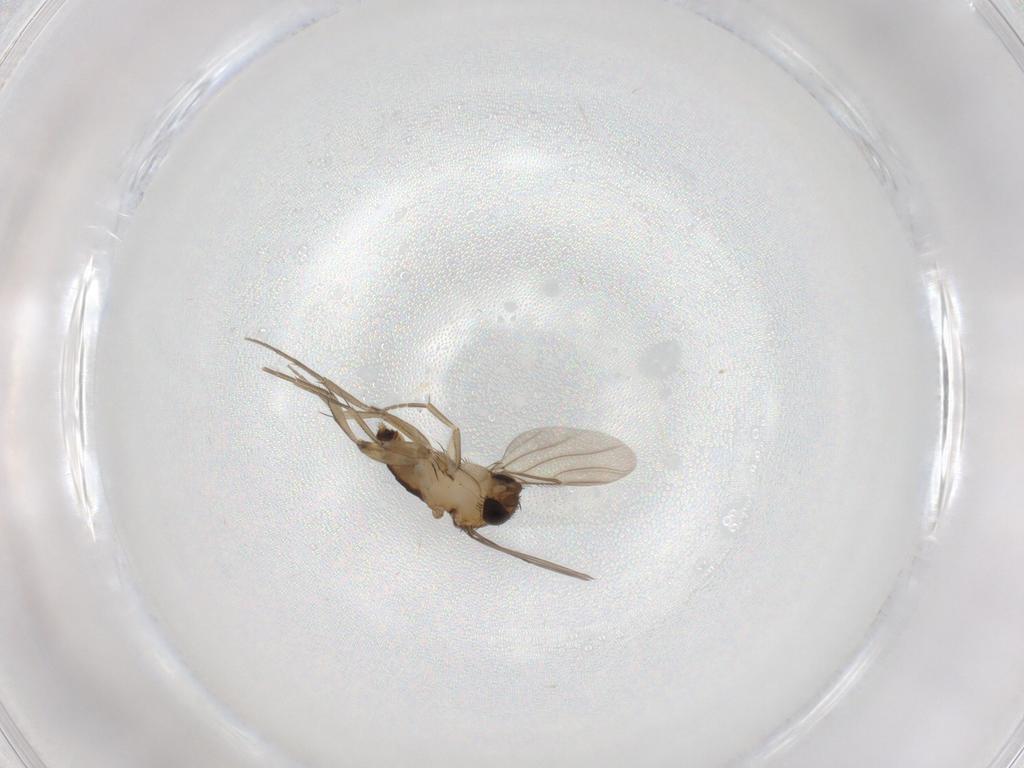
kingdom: Animalia
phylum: Arthropoda
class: Insecta
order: Diptera
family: Phoridae
